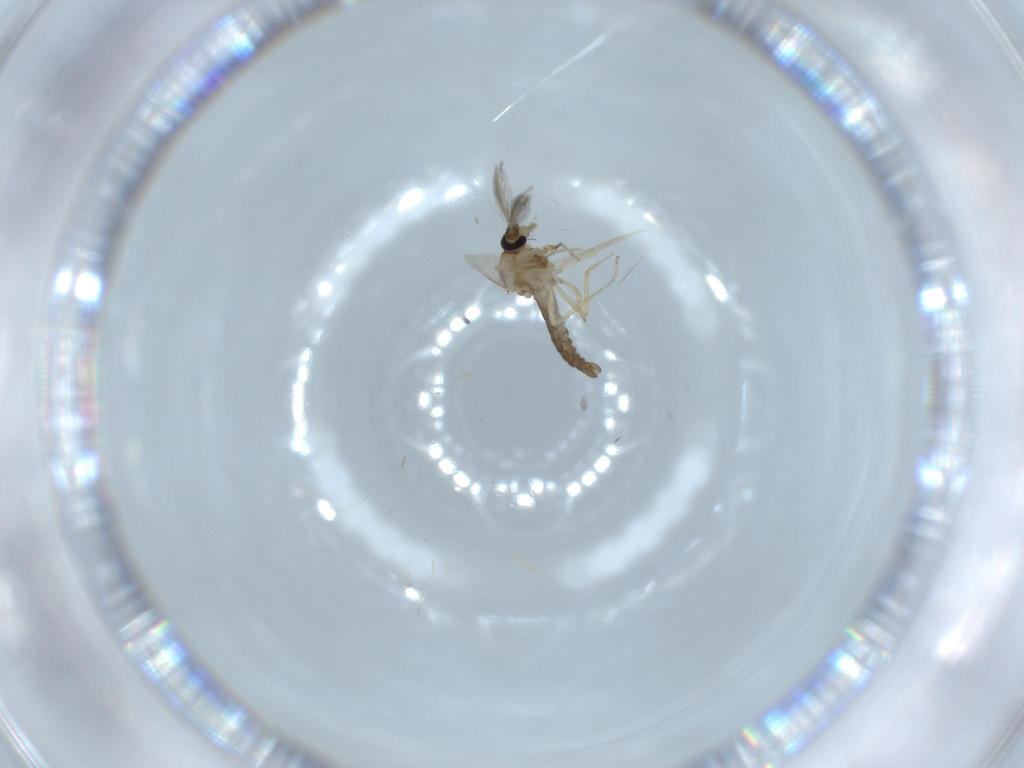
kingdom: Animalia
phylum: Arthropoda
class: Insecta
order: Diptera
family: Ceratopogonidae
